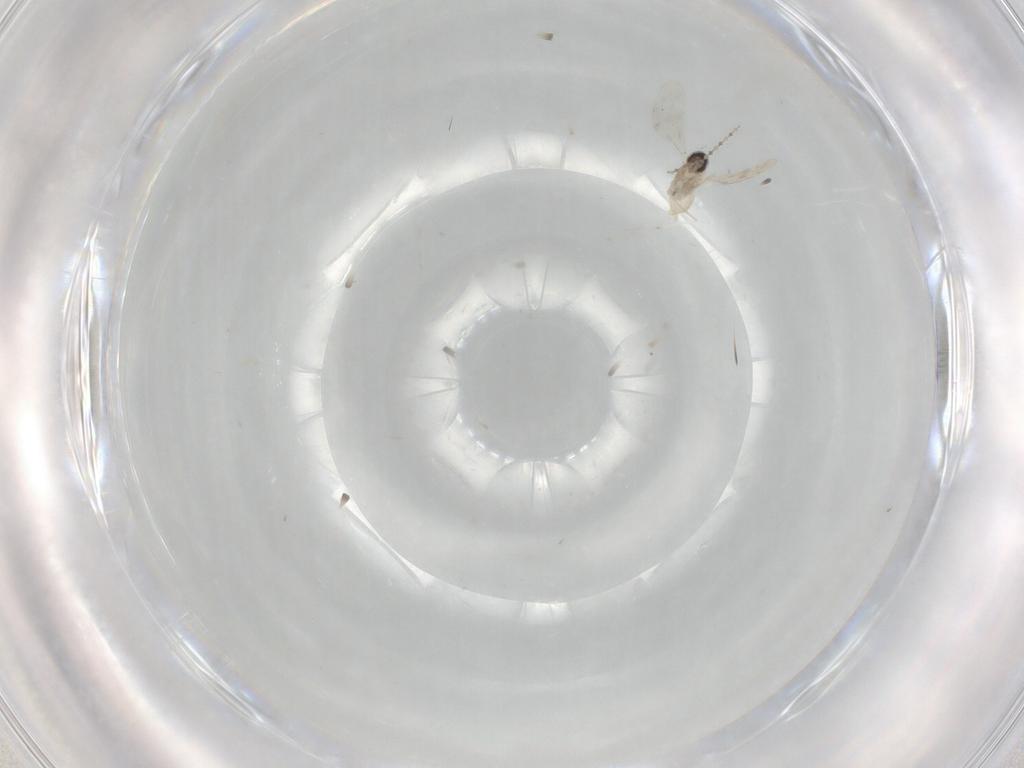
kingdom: Animalia
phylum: Arthropoda
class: Insecta
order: Diptera
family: Cecidomyiidae
